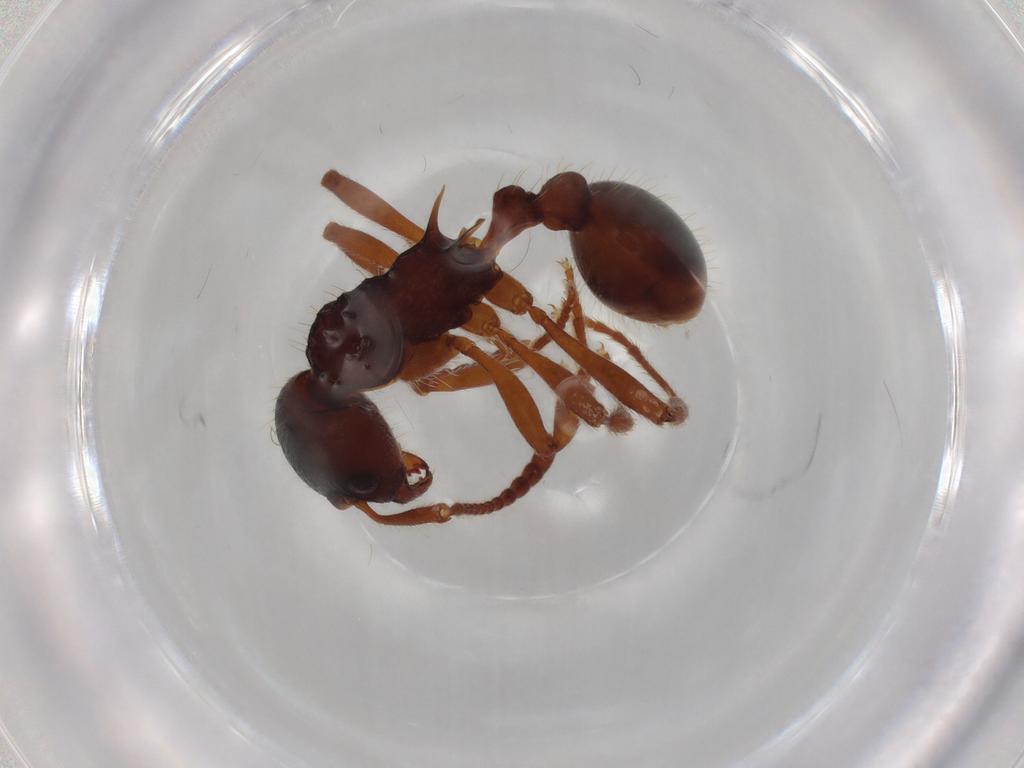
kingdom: Animalia
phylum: Arthropoda
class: Insecta
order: Hymenoptera
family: Formicidae
